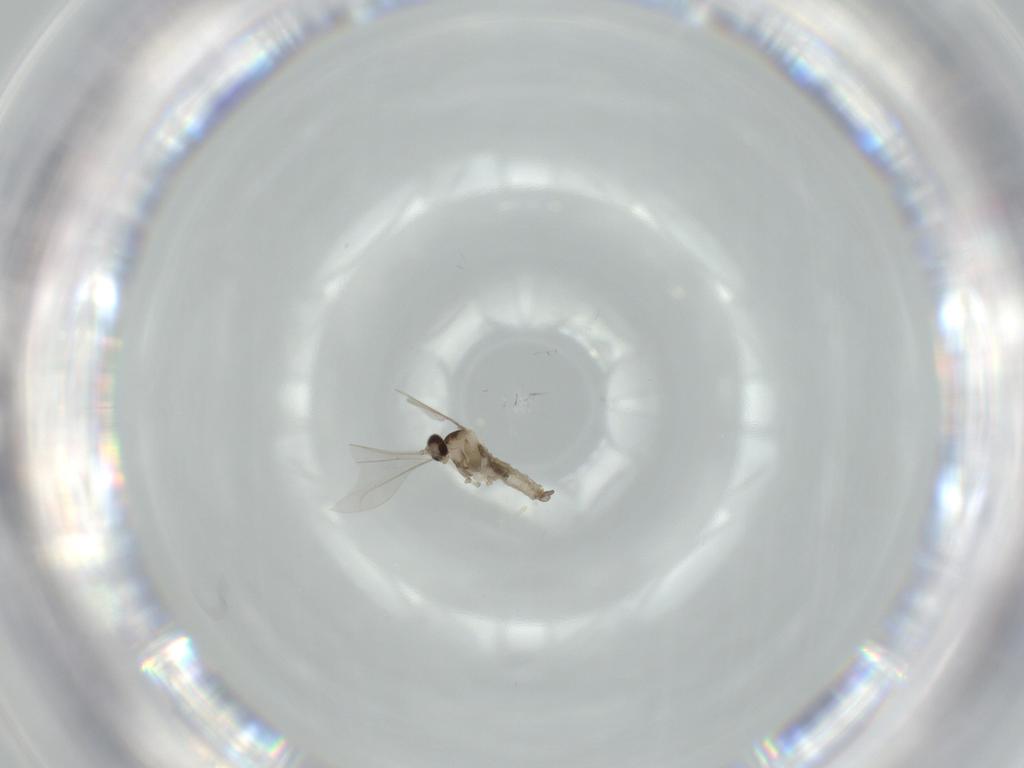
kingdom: Animalia
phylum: Arthropoda
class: Insecta
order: Diptera
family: Cecidomyiidae
